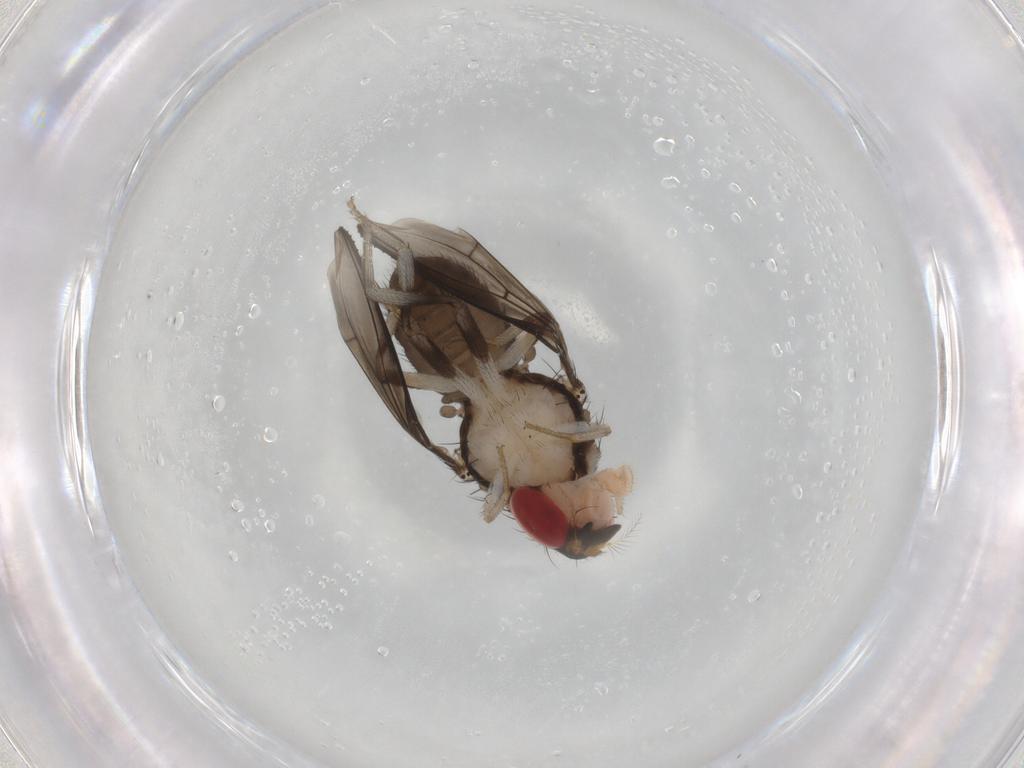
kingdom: Animalia
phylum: Arthropoda
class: Insecta
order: Diptera
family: Drosophilidae
